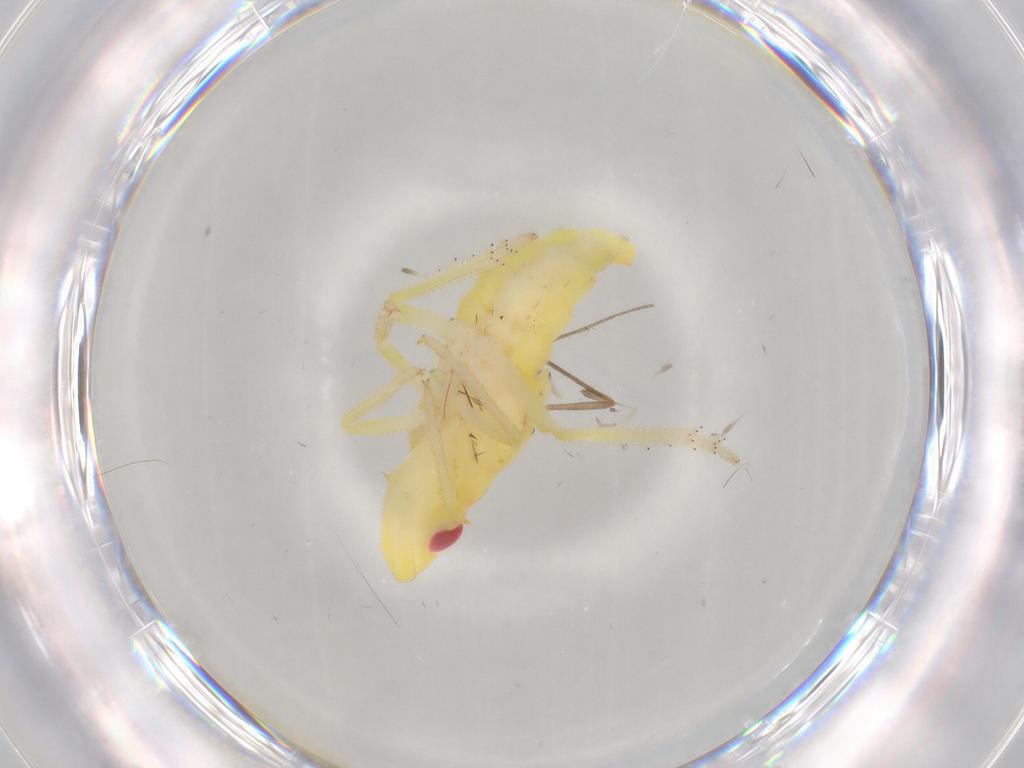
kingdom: Animalia
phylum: Arthropoda
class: Insecta
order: Hemiptera
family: Tropiduchidae
